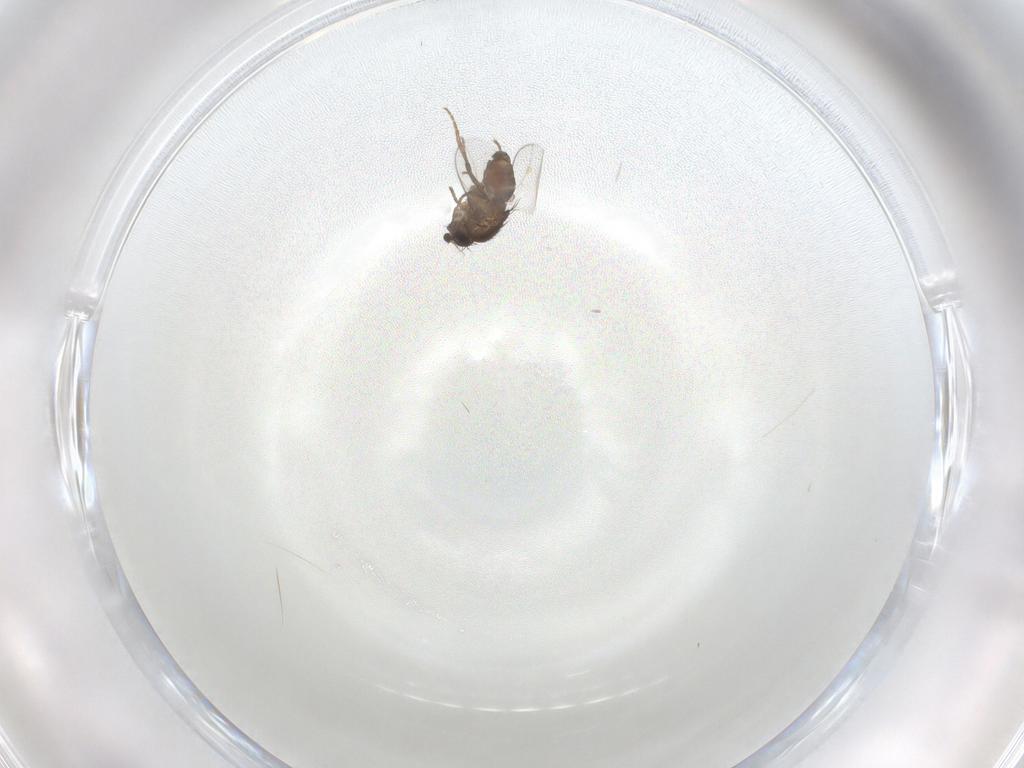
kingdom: Animalia
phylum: Arthropoda
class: Insecta
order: Diptera
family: Sphaeroceridae
